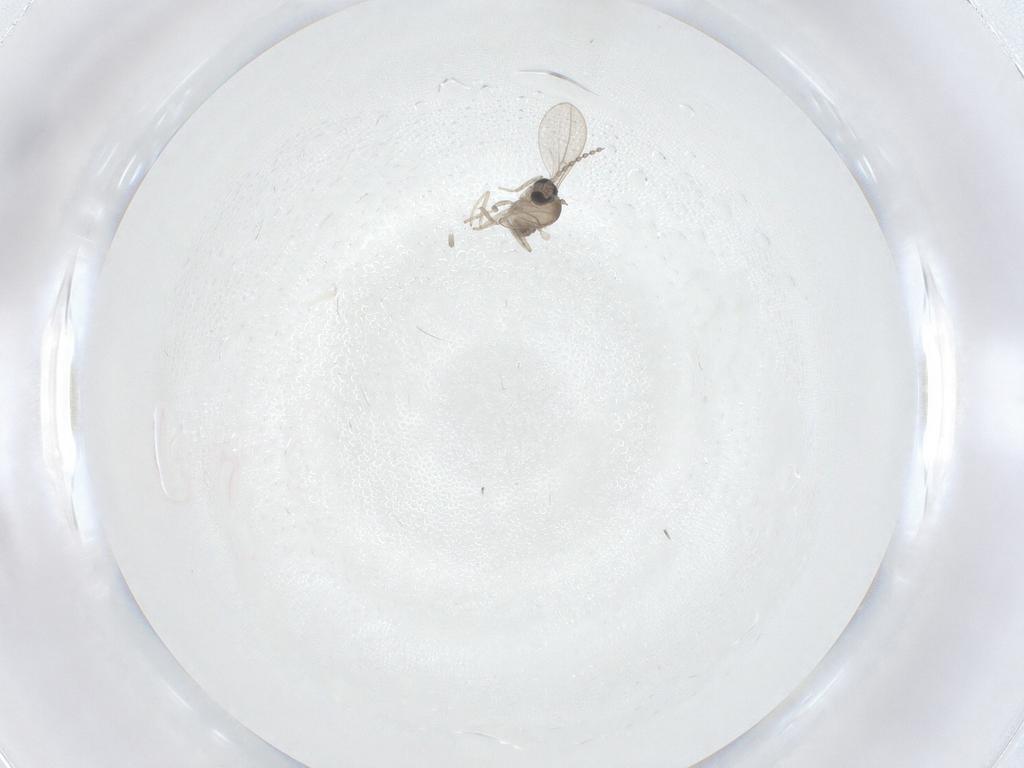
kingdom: Animalia
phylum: Arthropoda
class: Insecta
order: Diptera
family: Cecidomyiidae
